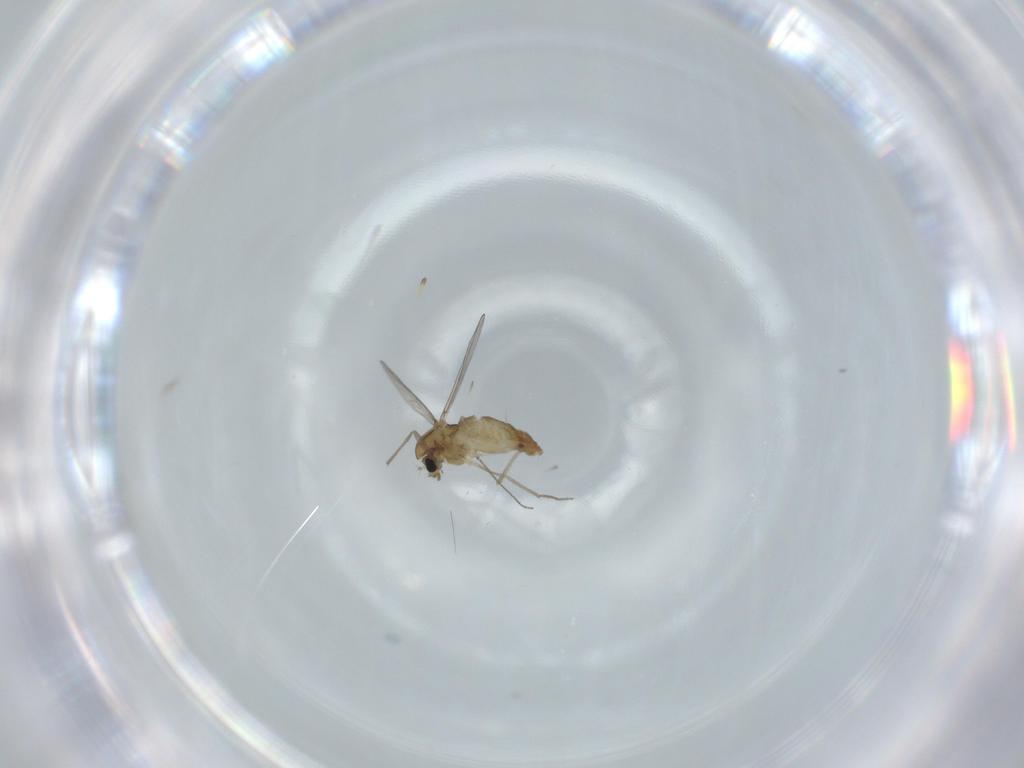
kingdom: Animalia
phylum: Arthropoda
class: Insecta
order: Diptera
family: Chironomidae
